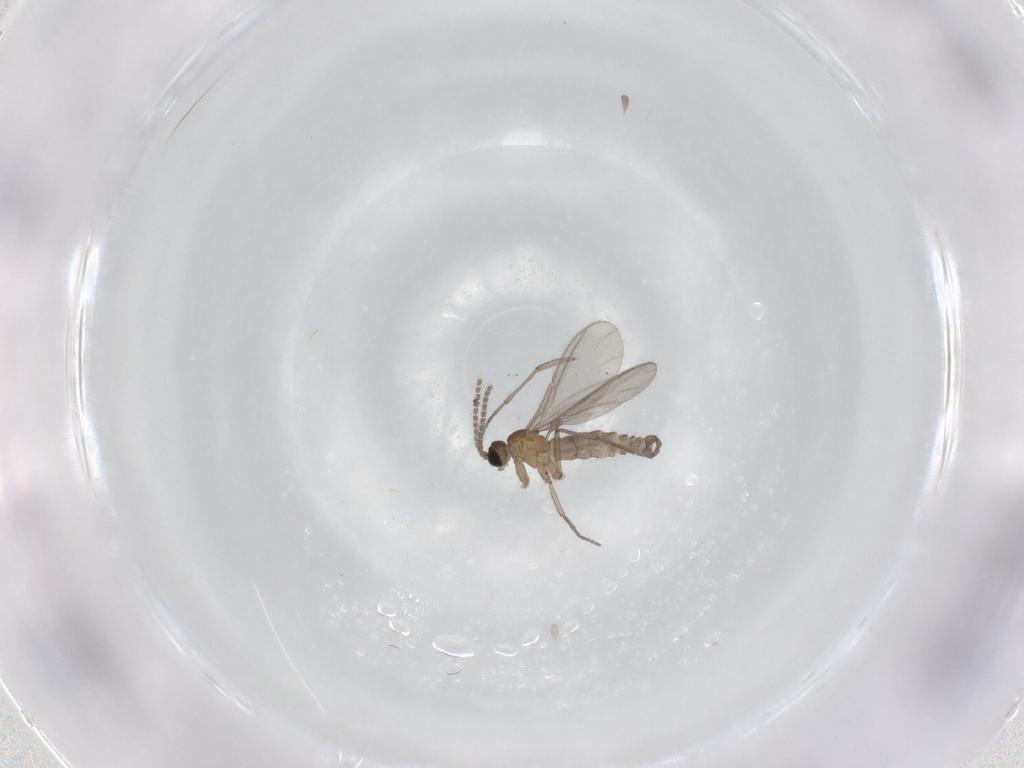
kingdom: Animalia
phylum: Arthropoda
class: Insecta
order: Diptera
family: Sciaridae
